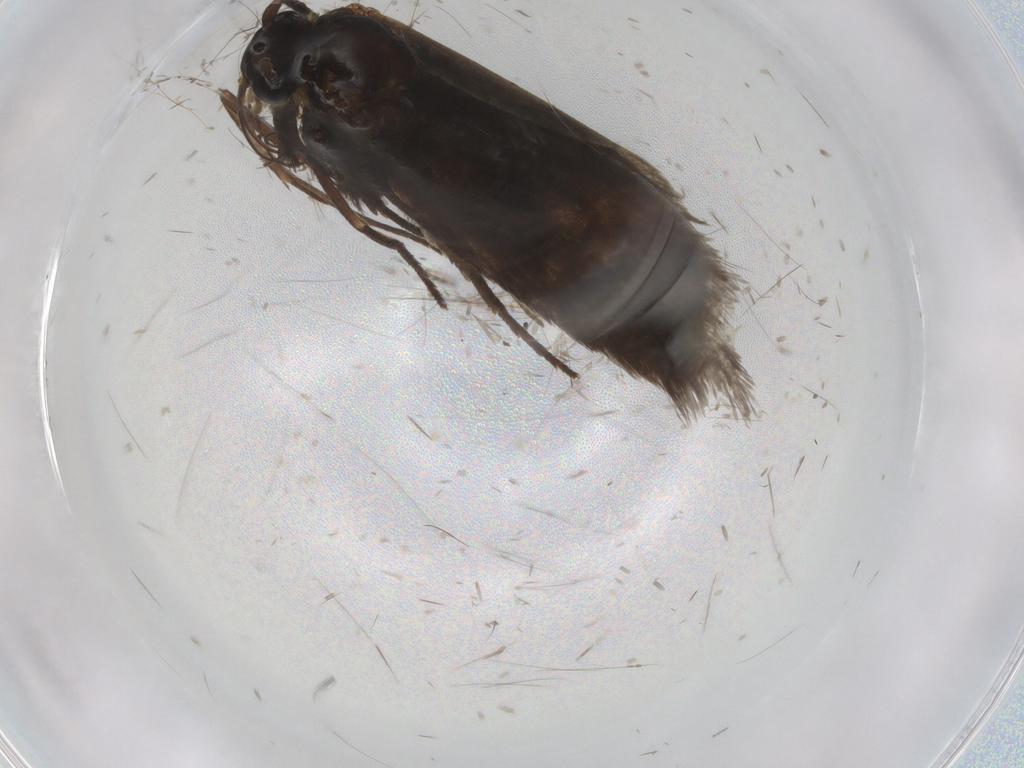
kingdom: Animalia
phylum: Arthropoda
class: Insecta
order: Lepidoptera
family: Adelidae
